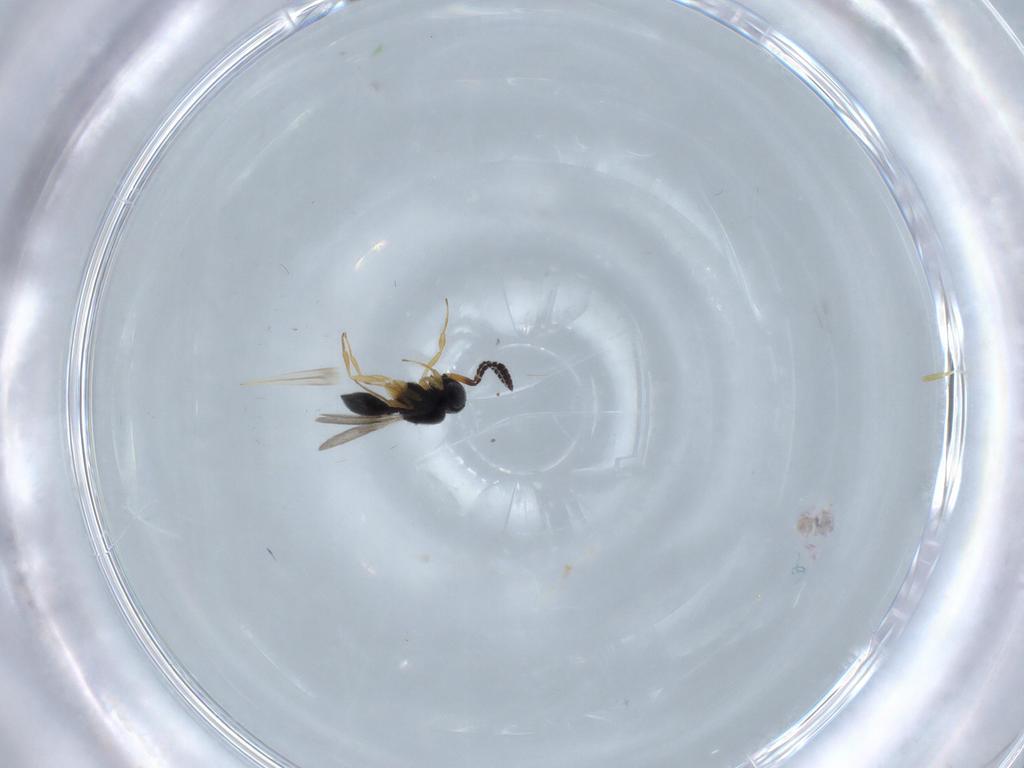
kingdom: Animalia
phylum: Arthropoda
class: Insecta
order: Hymenoptera
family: Scelionidae
